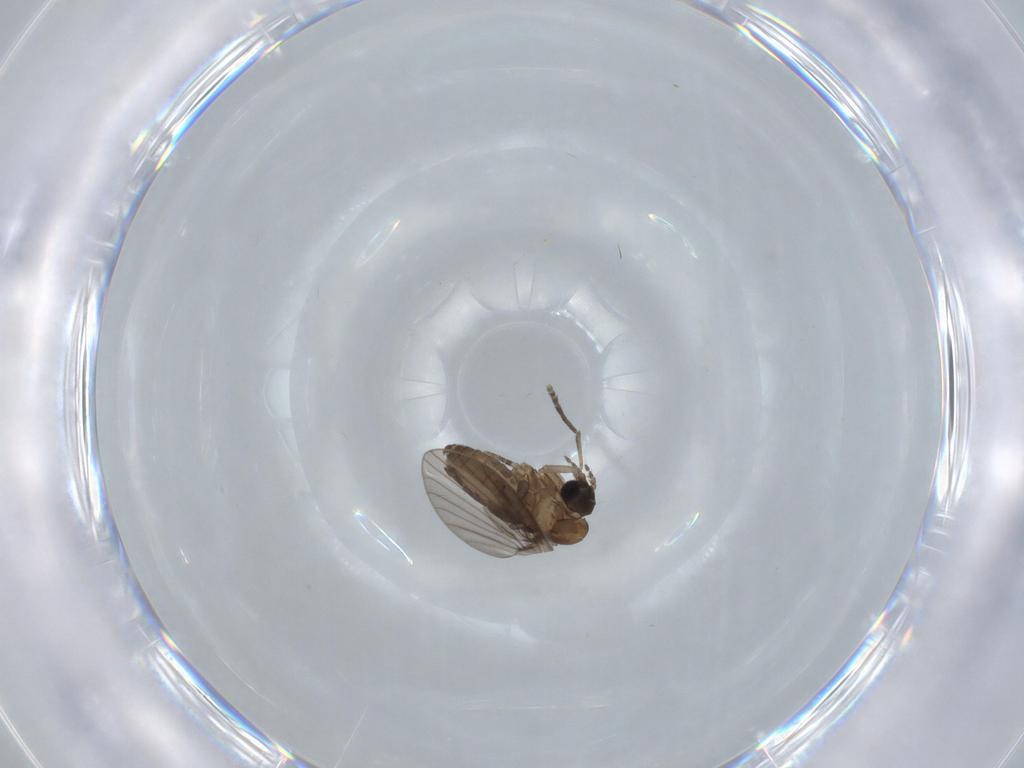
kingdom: Animalia
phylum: Arthropoda
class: Insecta
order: Diptera
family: Psychodidae
